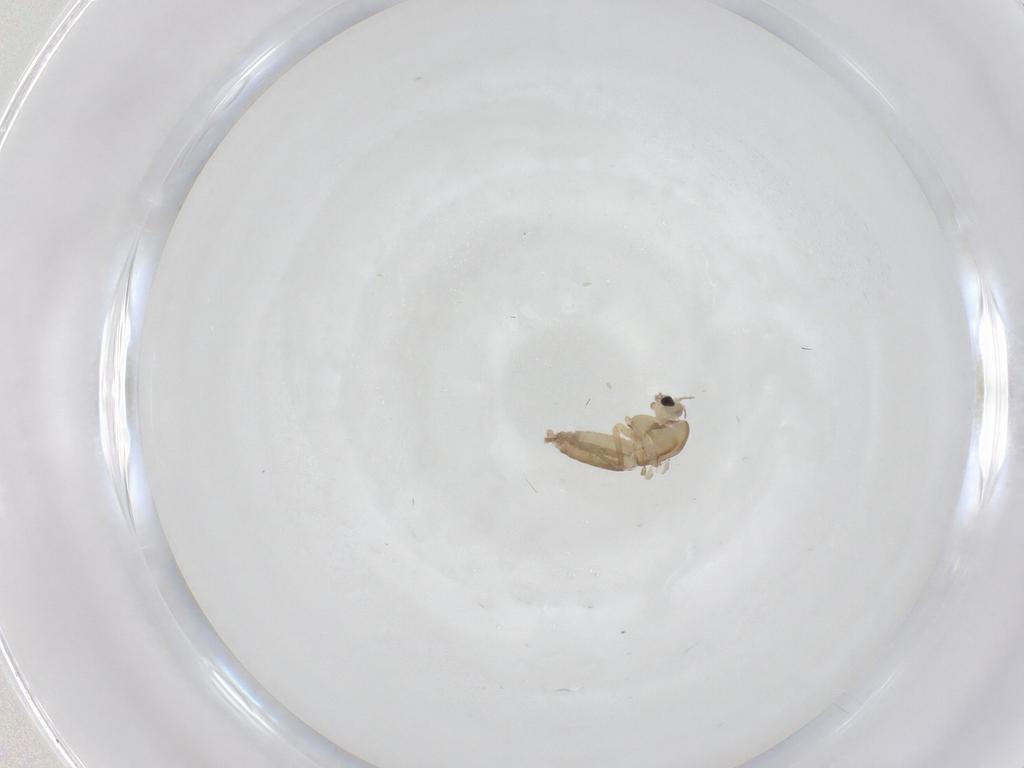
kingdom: Animalia
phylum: Arthropoda
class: Insecta
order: Diptera
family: Chironomidae
